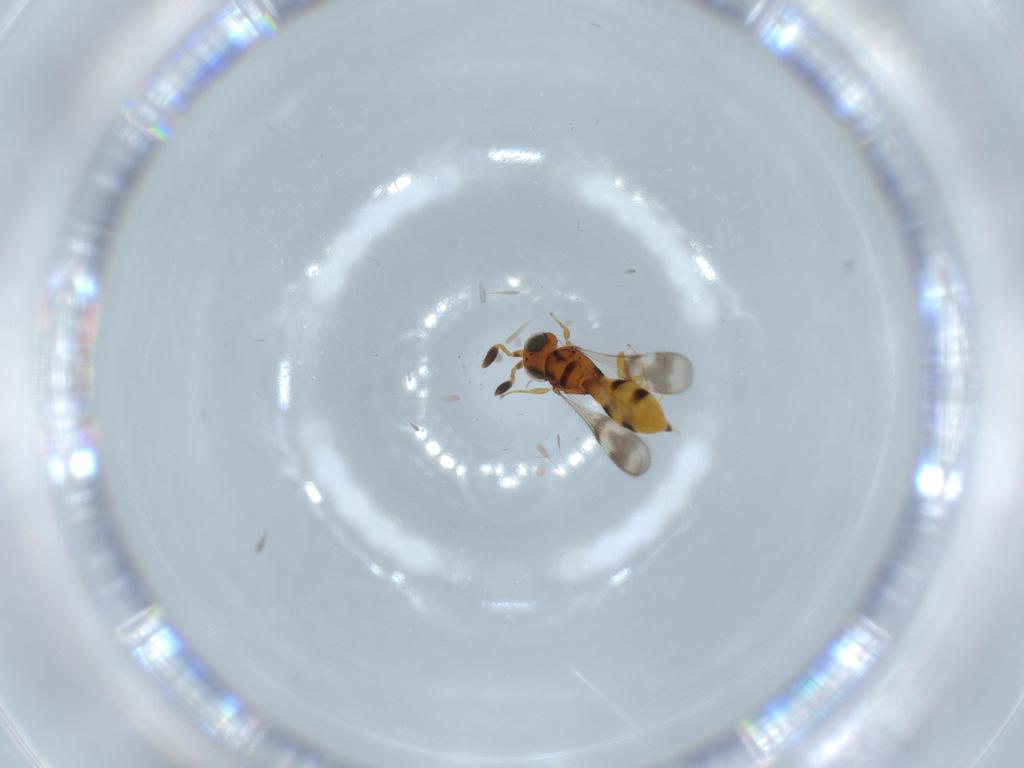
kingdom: Animalia
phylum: Arthropoda
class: Insecta
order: Hymenoptera
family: Scelionidae
